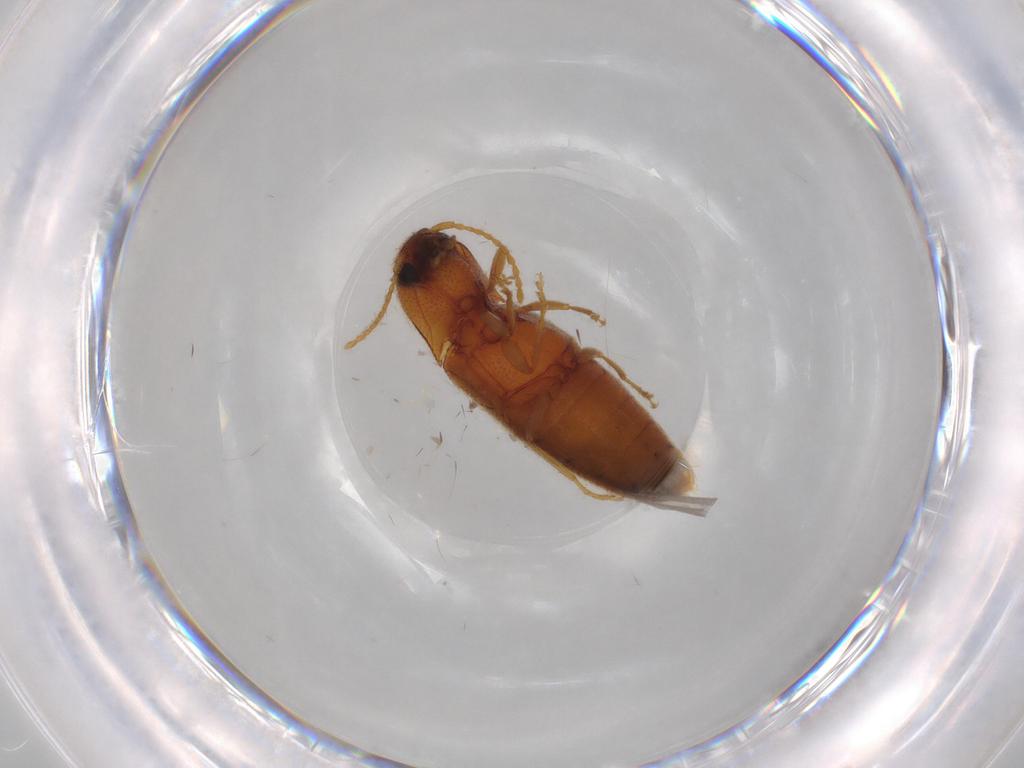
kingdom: Animalia
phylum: Arthropoda
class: Insecta
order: Coleoptera
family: Elateridae
